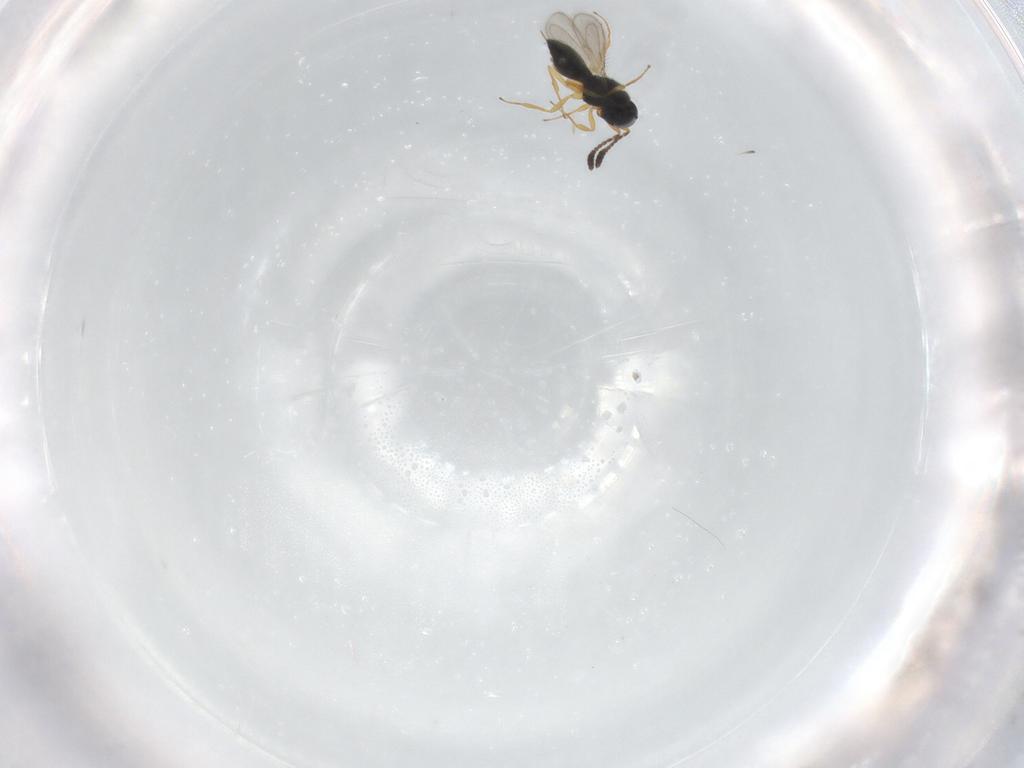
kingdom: Animalia
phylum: Arthropoda
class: Insecta
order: Hymenoptera
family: Scelionidae
